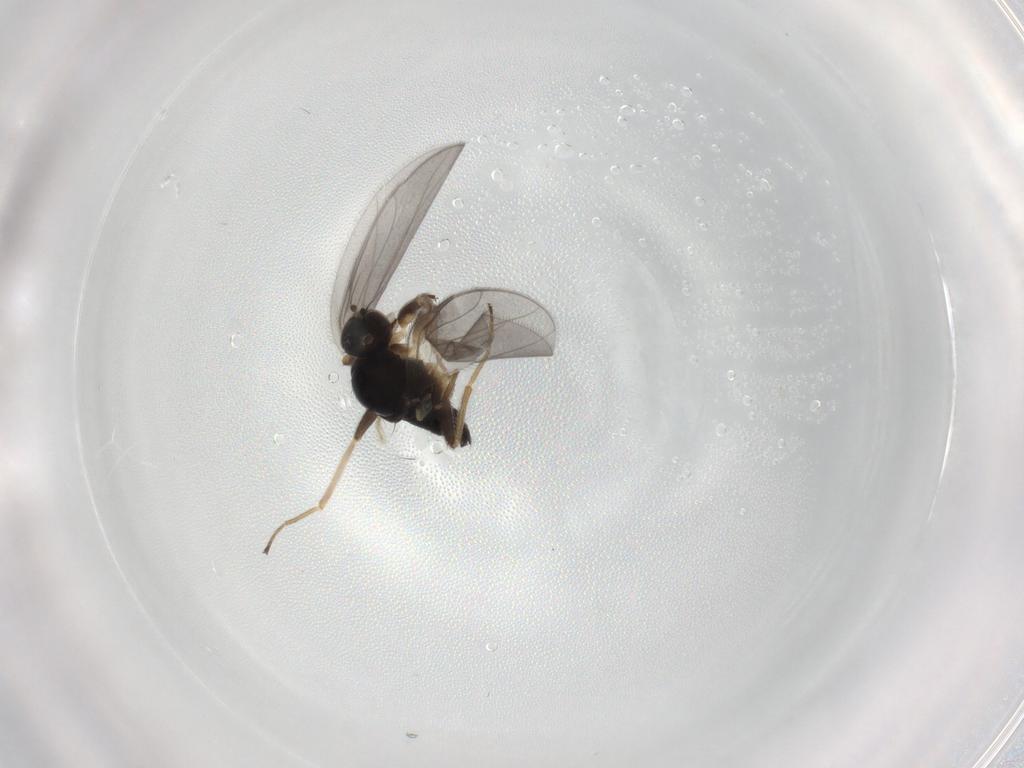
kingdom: Animalia
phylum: Arthropoda
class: Insecta
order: Diptera
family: Hybotidae
